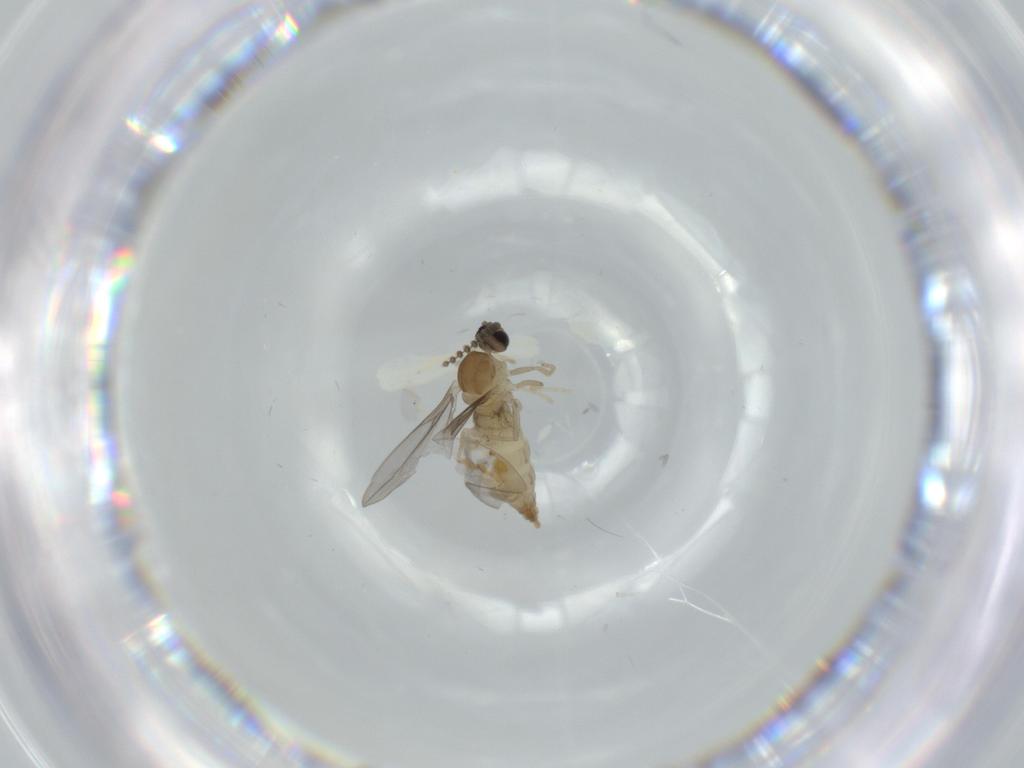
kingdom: Animalia
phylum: Arthropoda
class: Insecta
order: Diptera
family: Cecidomyiidae
